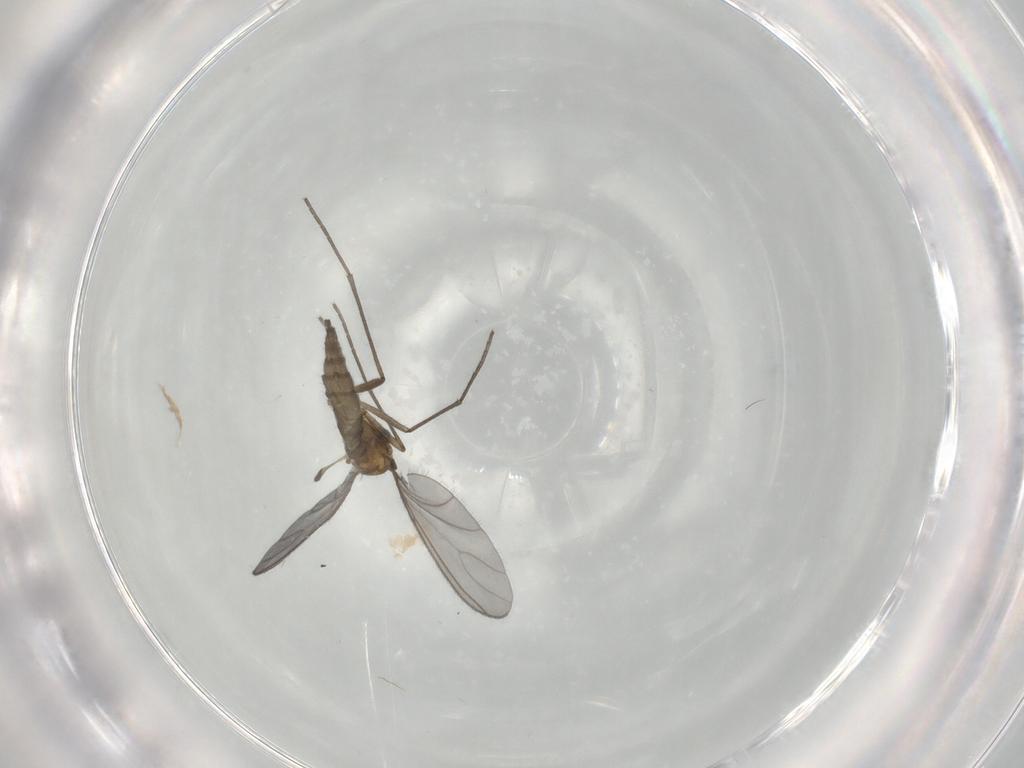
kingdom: Animalia
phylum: Arthropoda
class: Insecta
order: Diptera
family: Sciaridae
